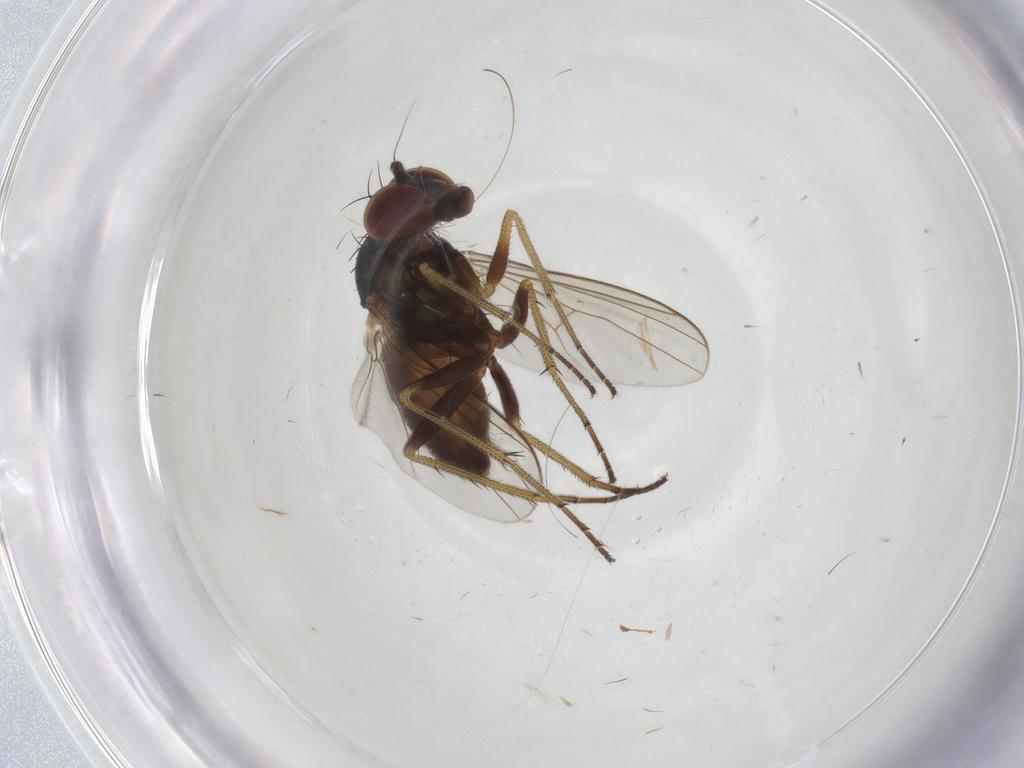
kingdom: Animalia
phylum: Arthropoda
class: Insecta
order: Diptera
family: Dolichopodidae
